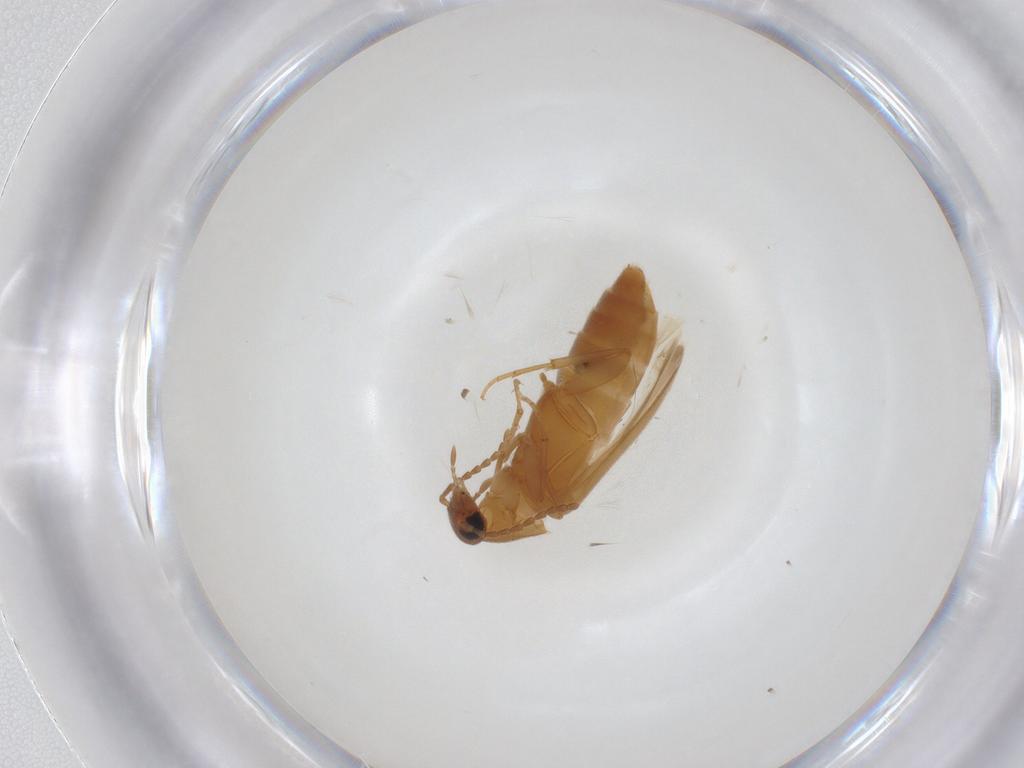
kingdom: Animalia
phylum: Arthropoda
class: Insecta
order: Coleoptera
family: Scraptiidae
